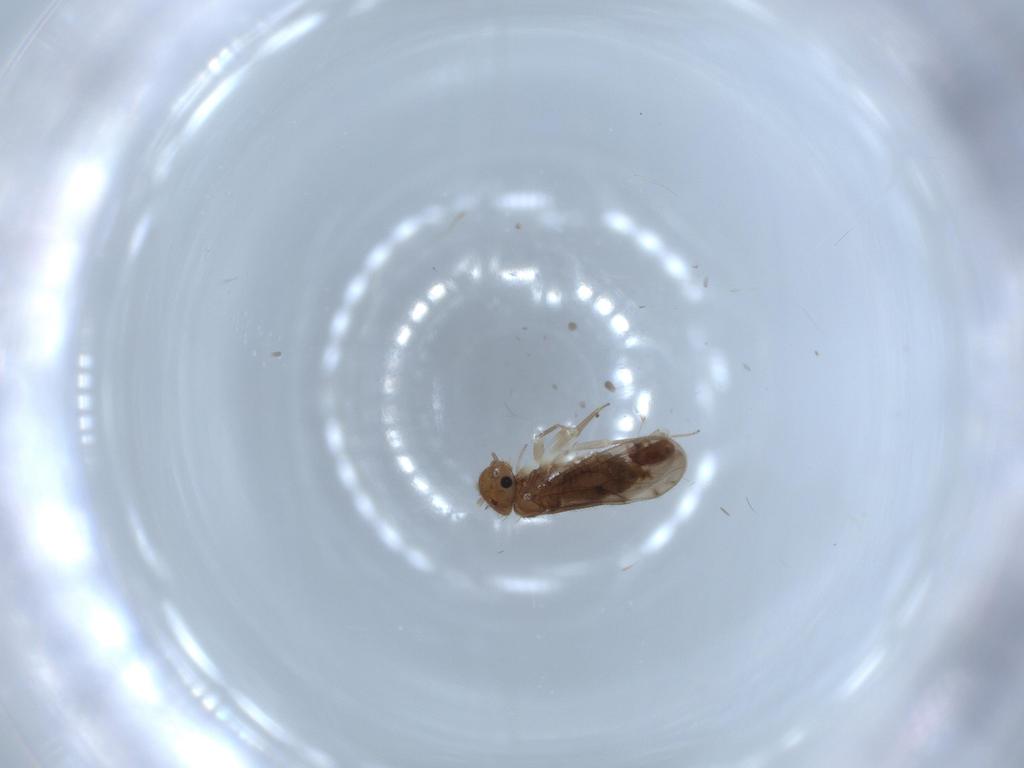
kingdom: Animalia
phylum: Arthropoda
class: Insecta
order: Psocodea
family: Ectopsocidae
